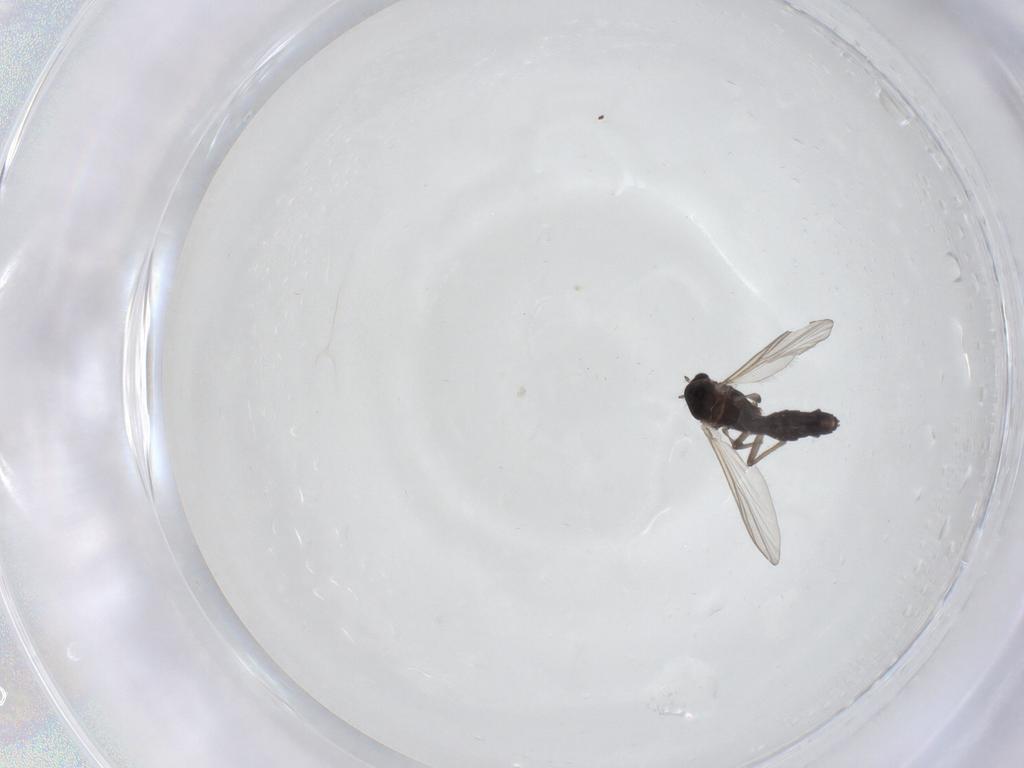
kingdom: Animalia
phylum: Arthropoda
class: Insecta
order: Diptera
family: Chironomidae
